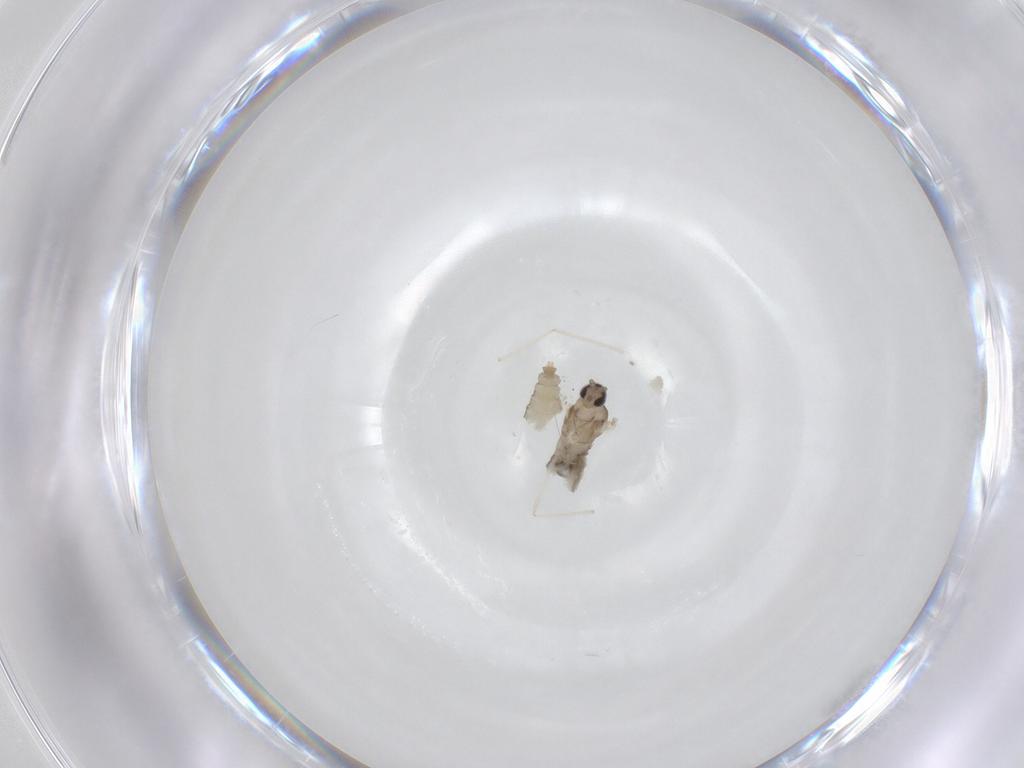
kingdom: Animalia
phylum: Arthropoda
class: Insecta
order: Diptera
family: Cecidomyiidae
